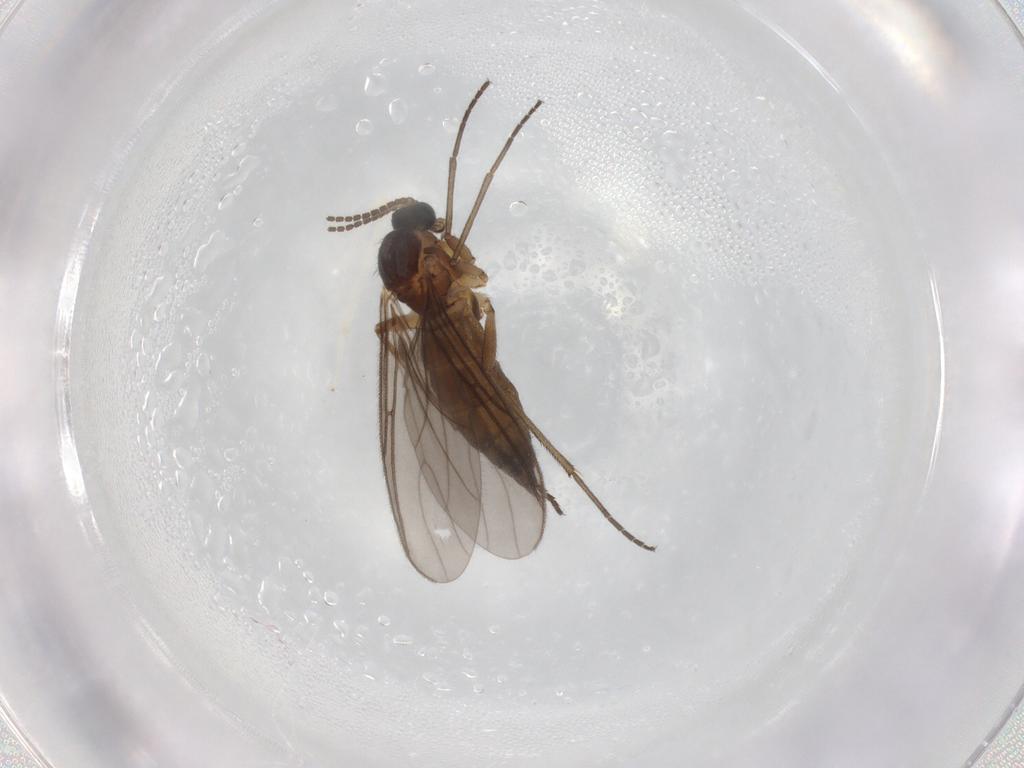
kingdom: Animalia
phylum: Arthropoda
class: Insecta
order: Diptera
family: Sciaridae
